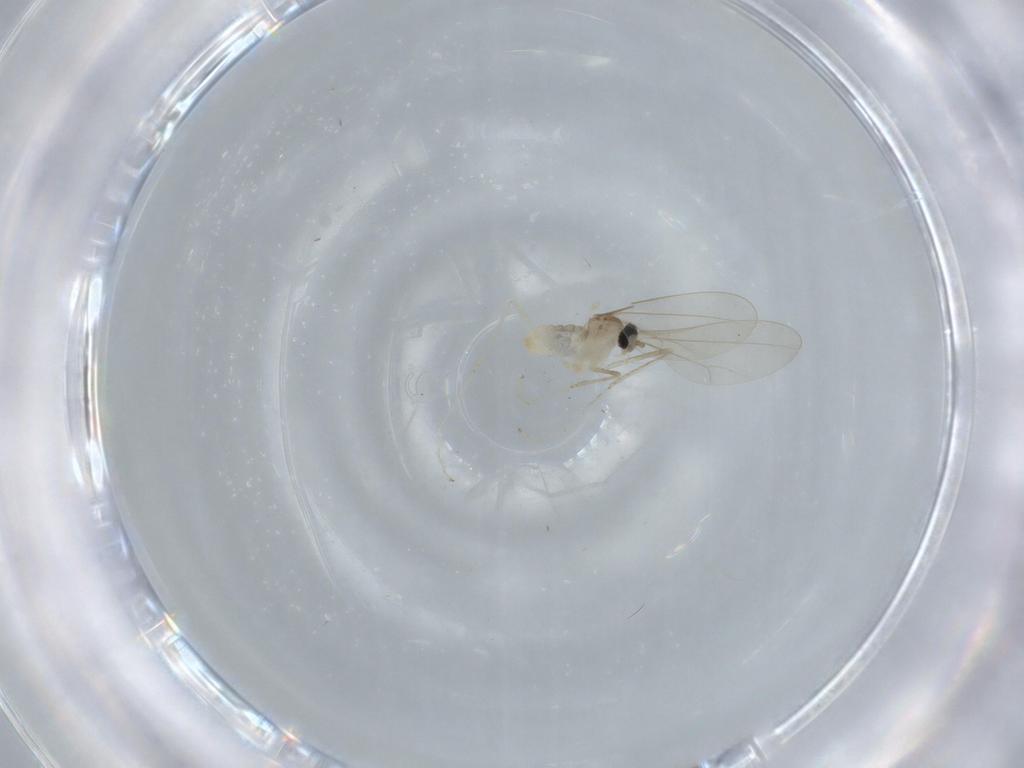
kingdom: Animalia
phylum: Arthropoda
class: Insecta
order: Diptera
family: Cecidomyiidae
